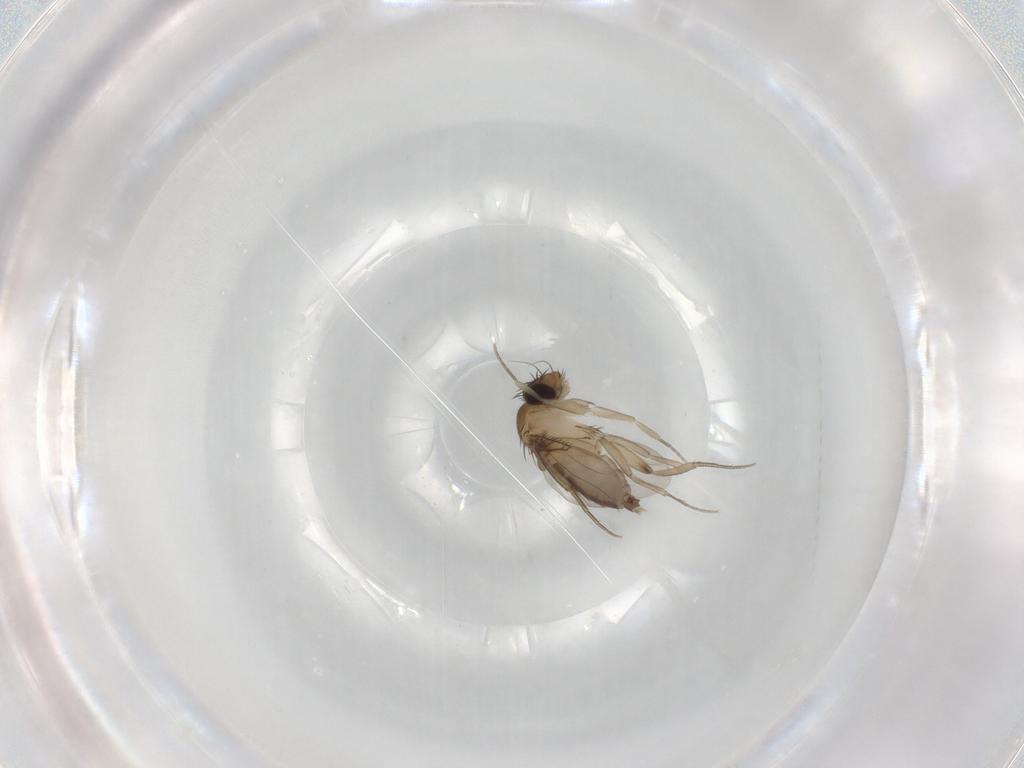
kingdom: Animalia
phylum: Arthropoda
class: Insecta
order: Diptera
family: Phoridae
